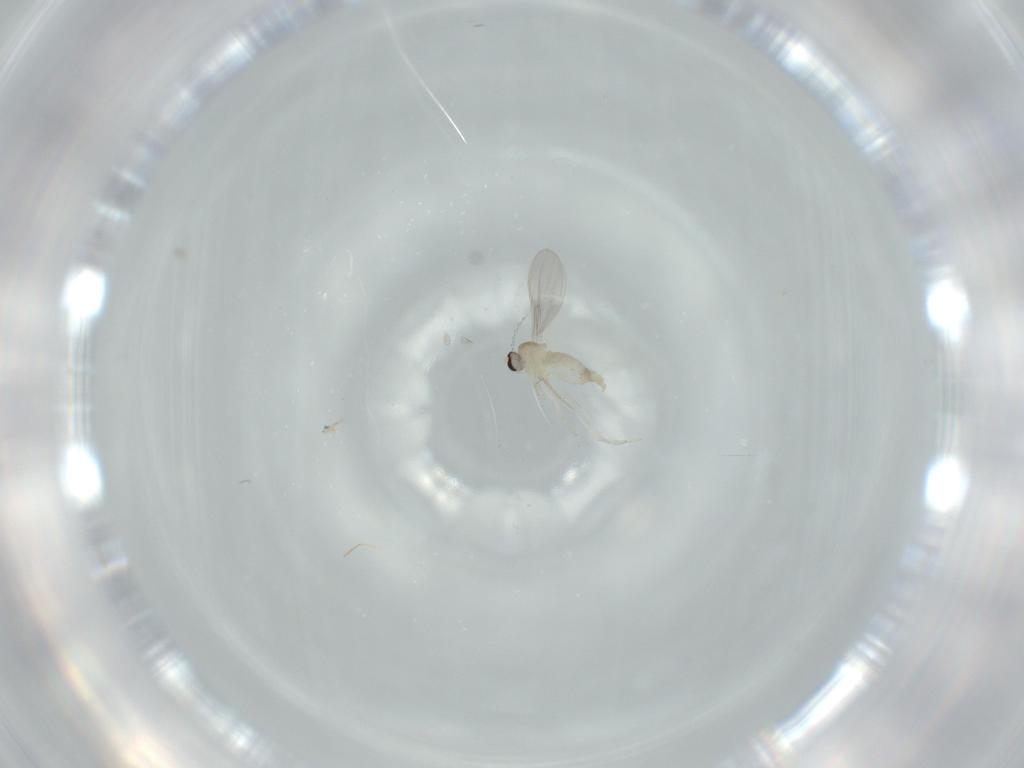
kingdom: Animalia
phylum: Arthropoda
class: Insecta
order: Diptera
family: Cecidomyiidae
